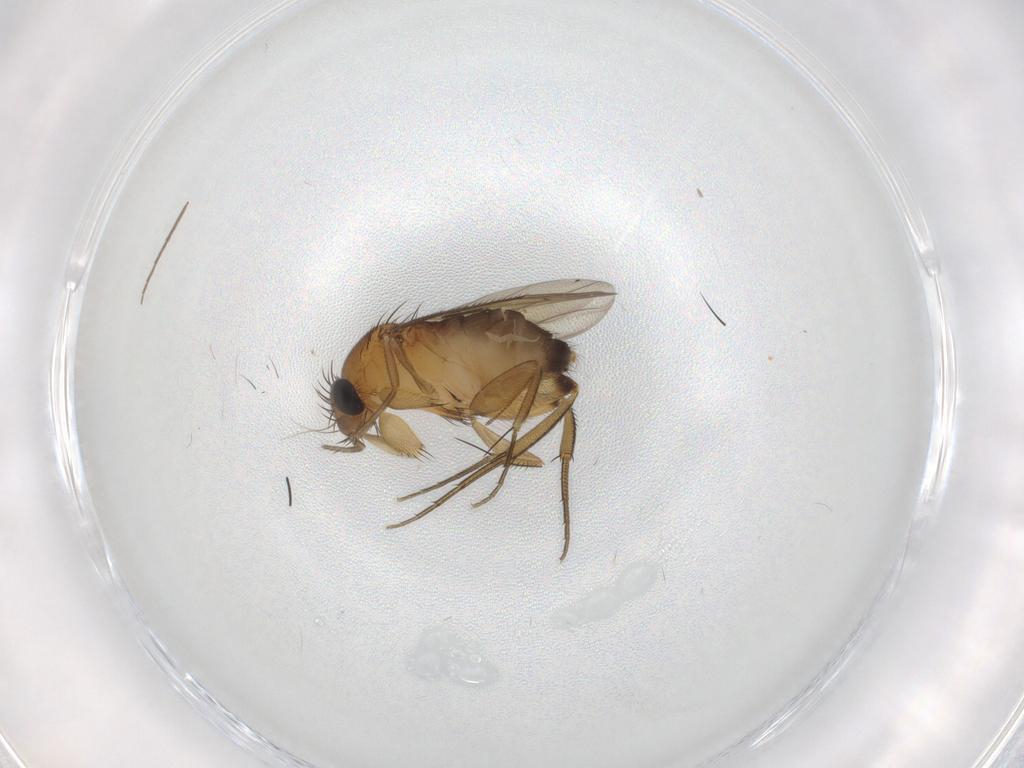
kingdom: Animalia
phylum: Arthropoda
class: Insecta
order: Diptera
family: Phoridae
